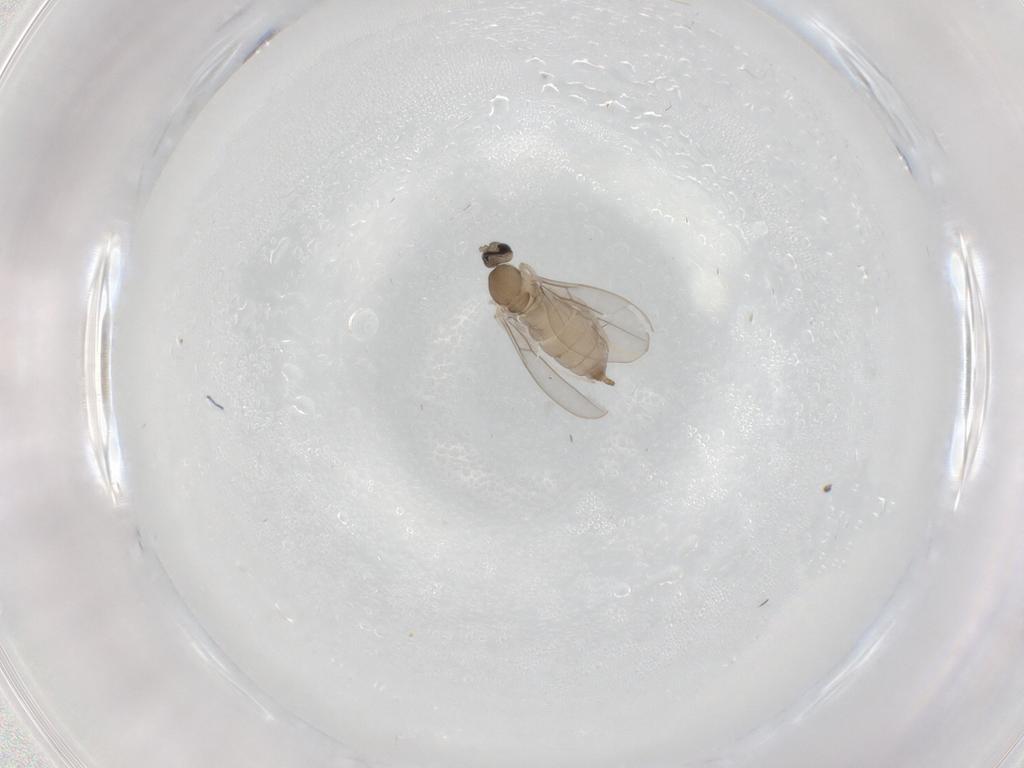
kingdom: Animalia
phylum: Arthropoda
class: Insecta
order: Diptera
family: Cecidomyiidae
